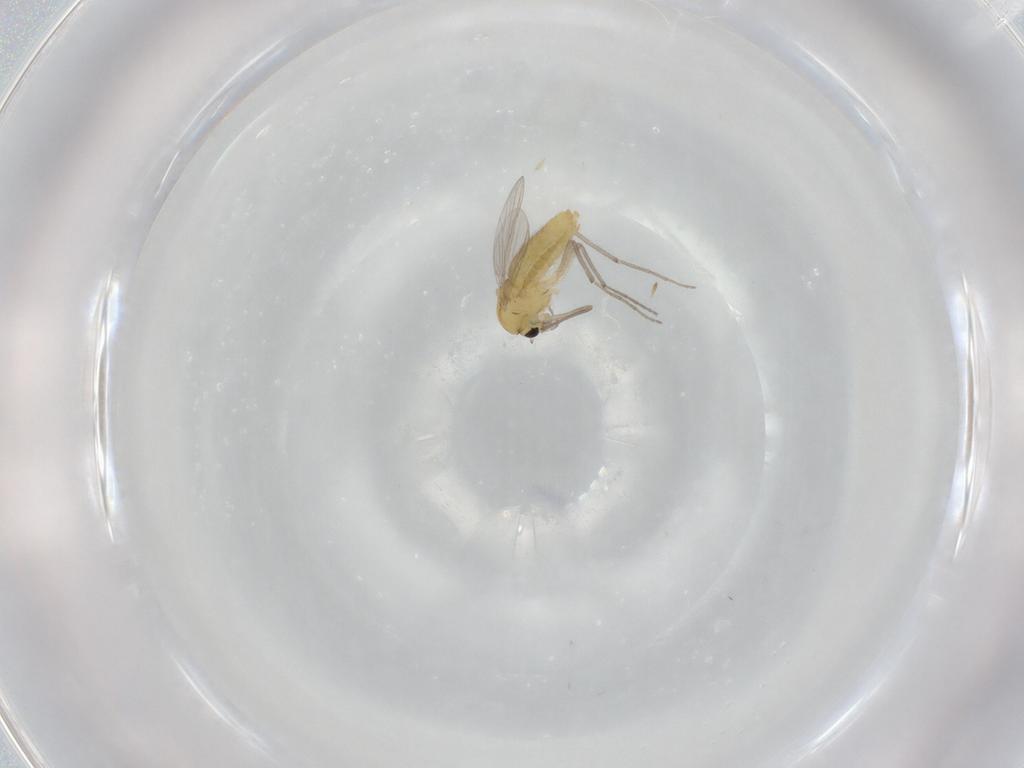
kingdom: Animalia
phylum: Arthropoda
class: Insecta
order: Diptera
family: Chironomidae
